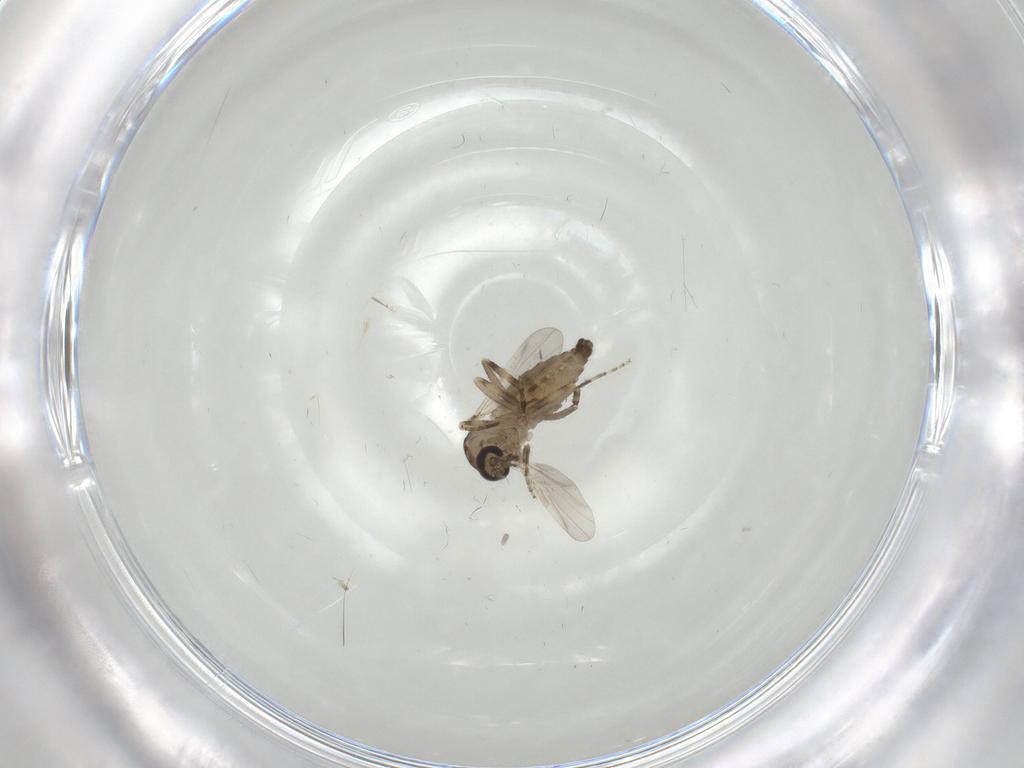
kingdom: Animalia
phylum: Arthropoda
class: Insecta
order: Diptera
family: Ceratopogonidae
